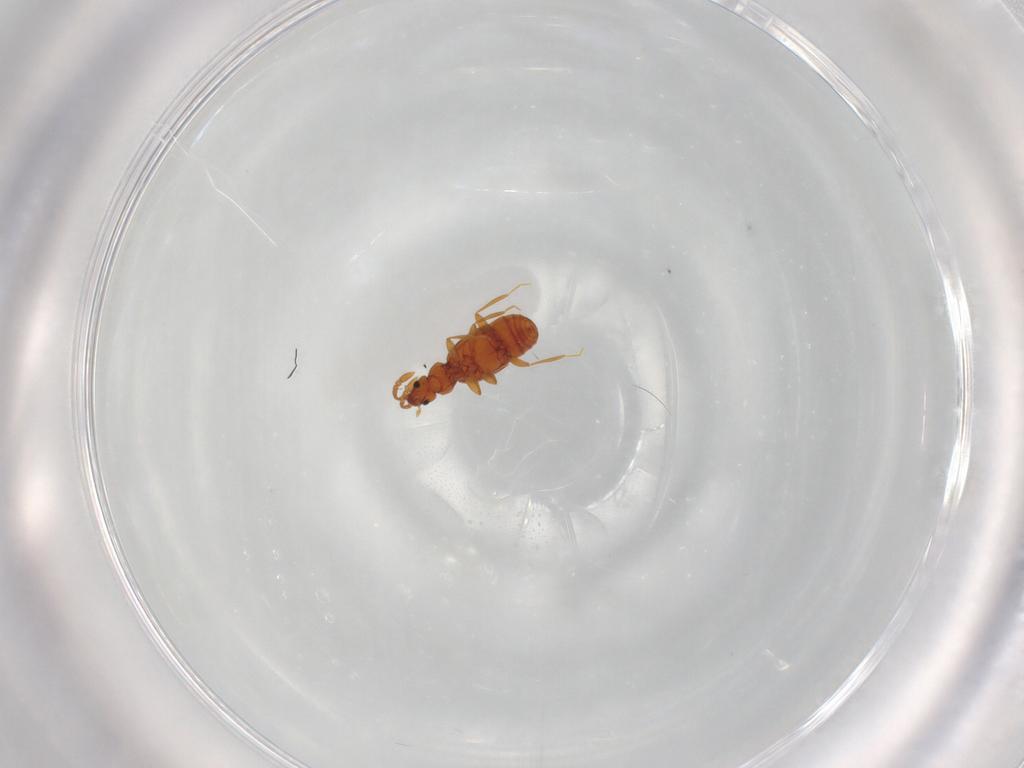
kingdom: Animalia
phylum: Arthropoda
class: Insecta
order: Coleoptera
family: Staphylinidae
